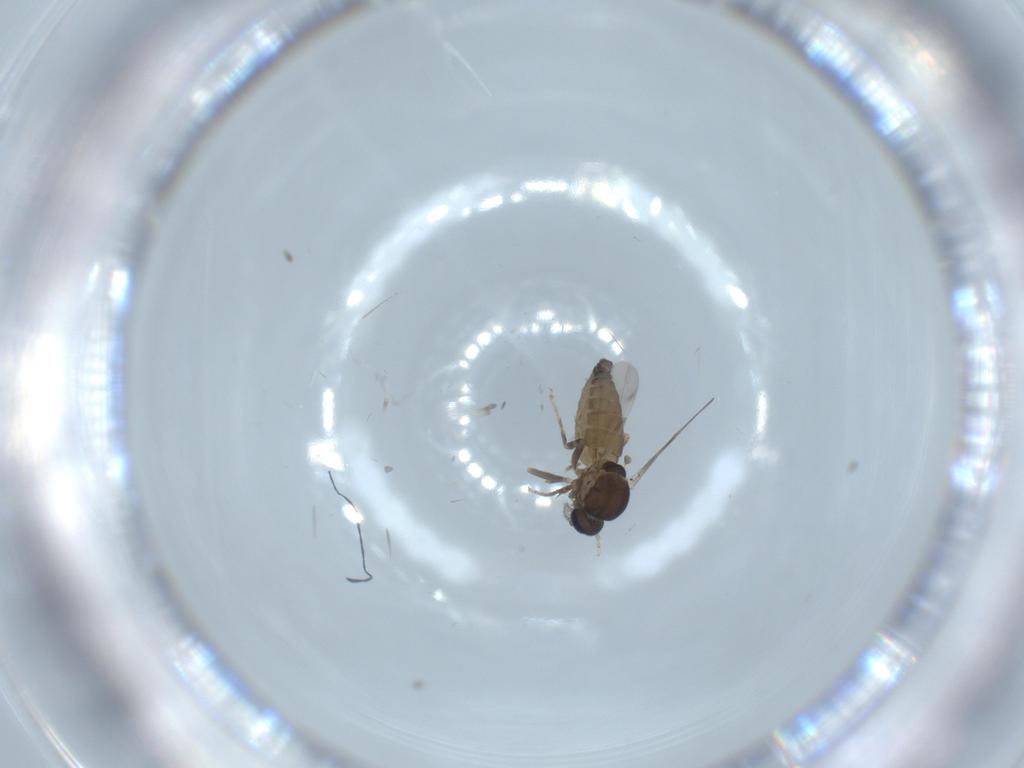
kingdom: Animalia
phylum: Arthropoda
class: Insecta
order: Diptera
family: Ceratopogonidae
